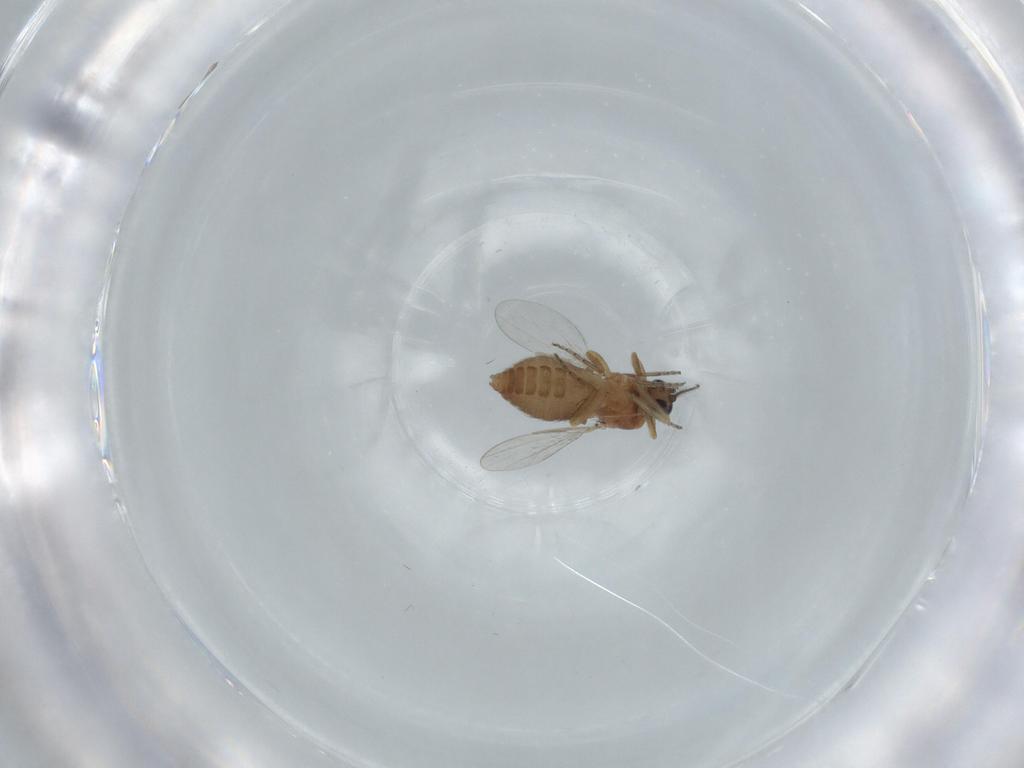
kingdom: Animalia
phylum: Arthropoda
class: Insecta
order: Diptera
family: Ceratopogonidae
